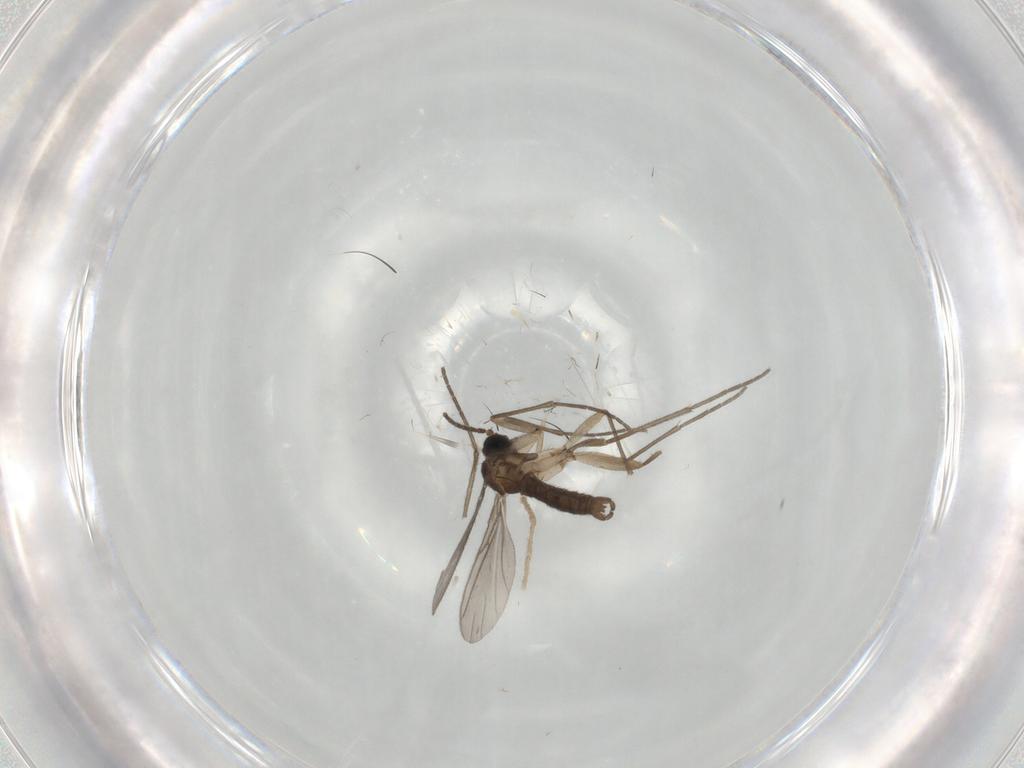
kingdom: Animalia
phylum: Arthropoda
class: Insecta
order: Diptera
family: Sciaridae
